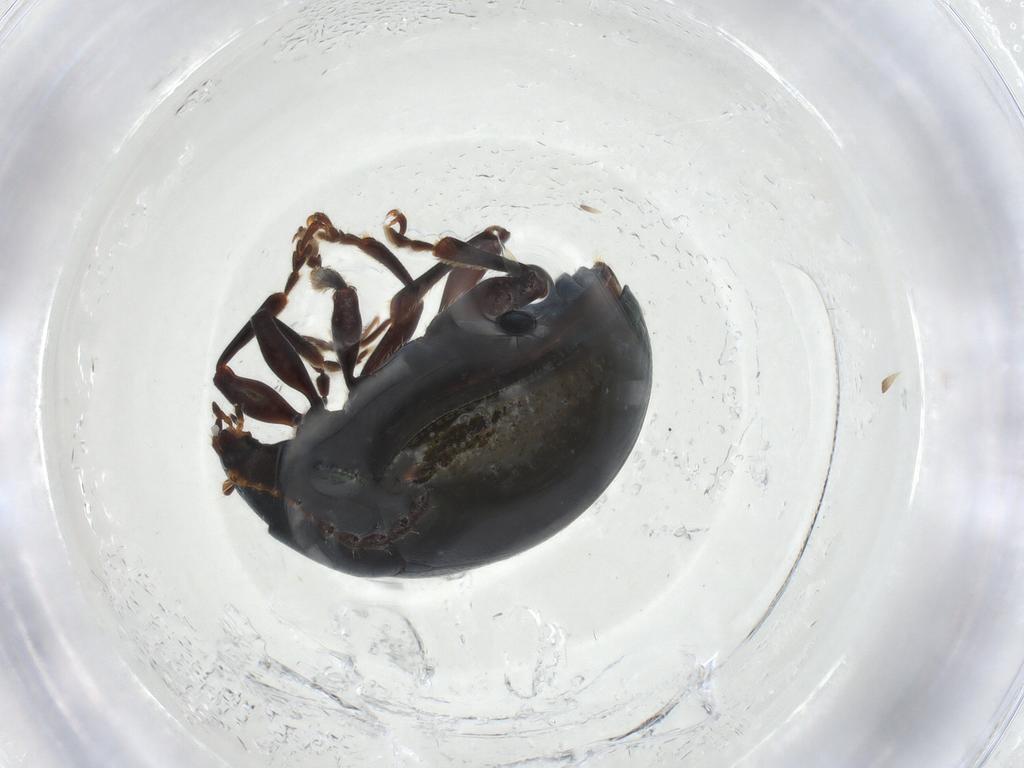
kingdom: Animalia
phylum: Arthropoda
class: Insecta
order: Coleoptera
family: Chrysomelidae
